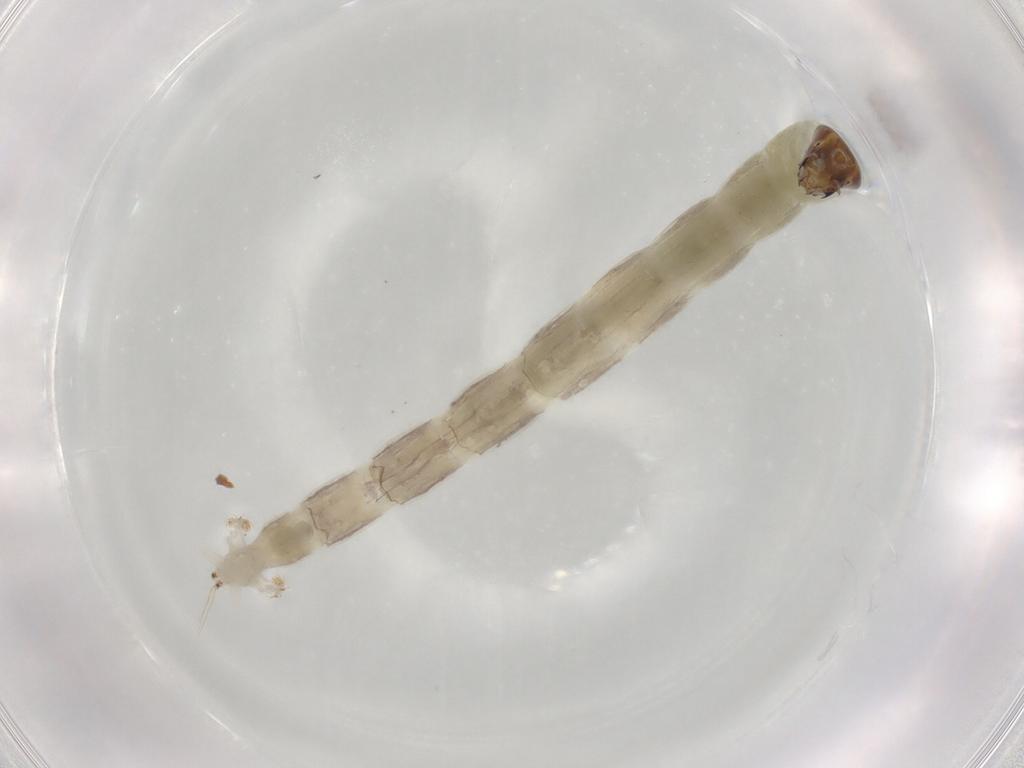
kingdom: Animalia
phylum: Arthropoda
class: Insecta
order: Diptera
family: Chironomidae
